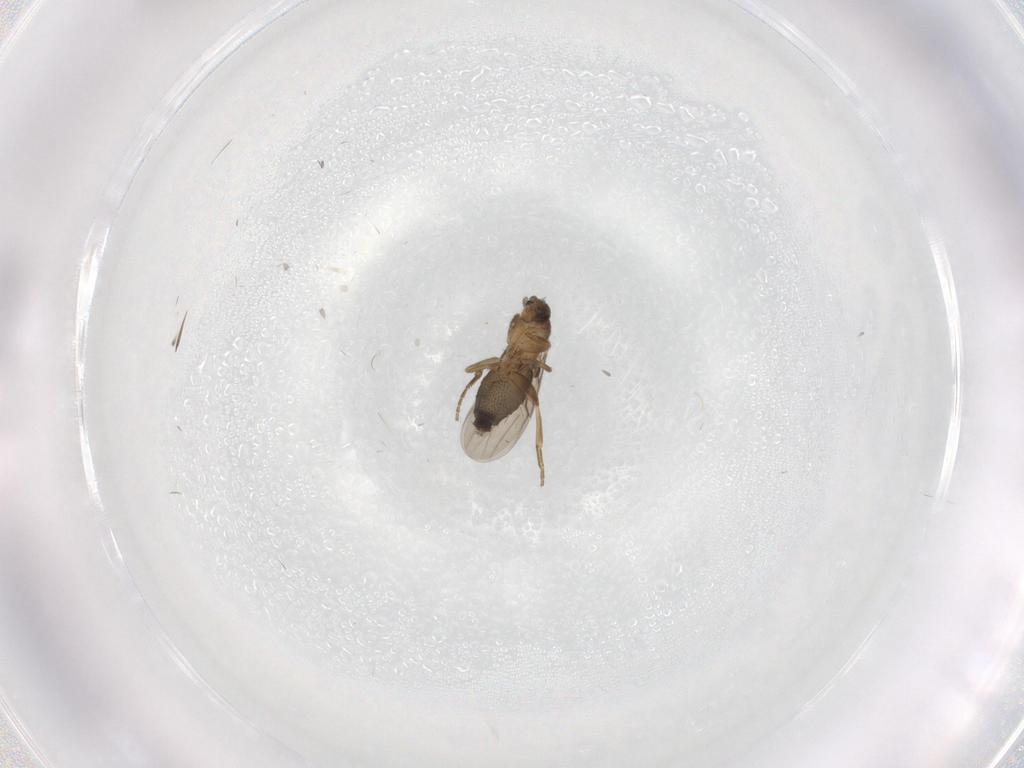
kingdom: Animalia
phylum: Arthropoda
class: Insecta
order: Diptera
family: Phoridae
